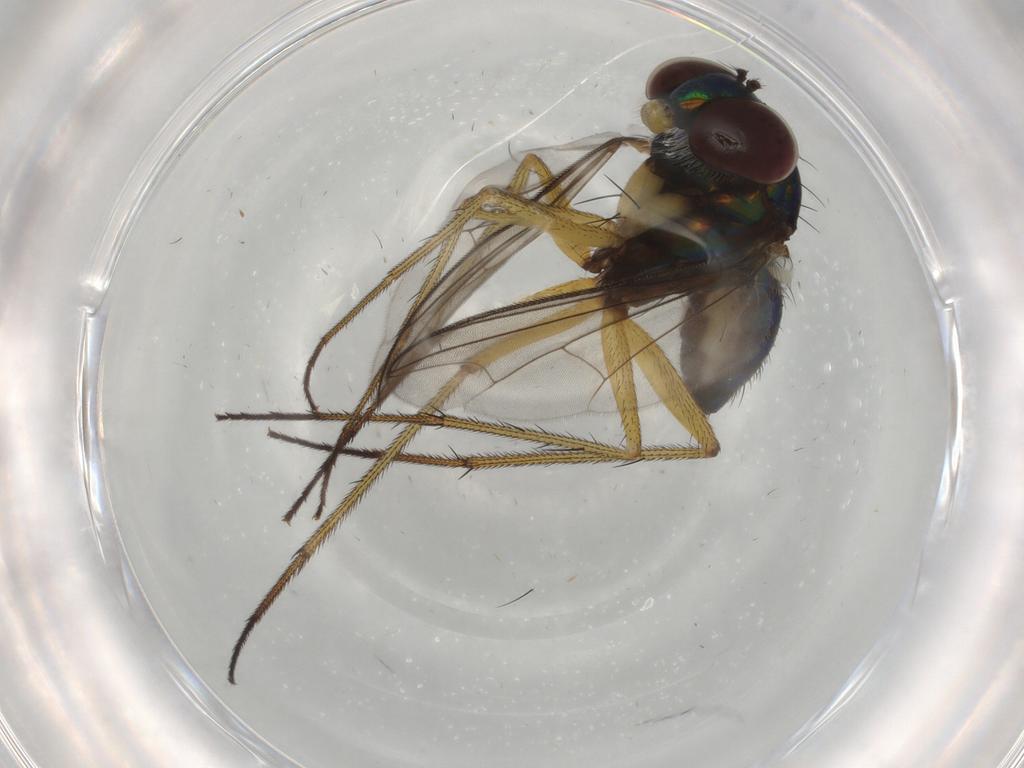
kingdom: Animalia
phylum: Arthropoda
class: Insecta
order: Diptera
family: Dolichopodidae
